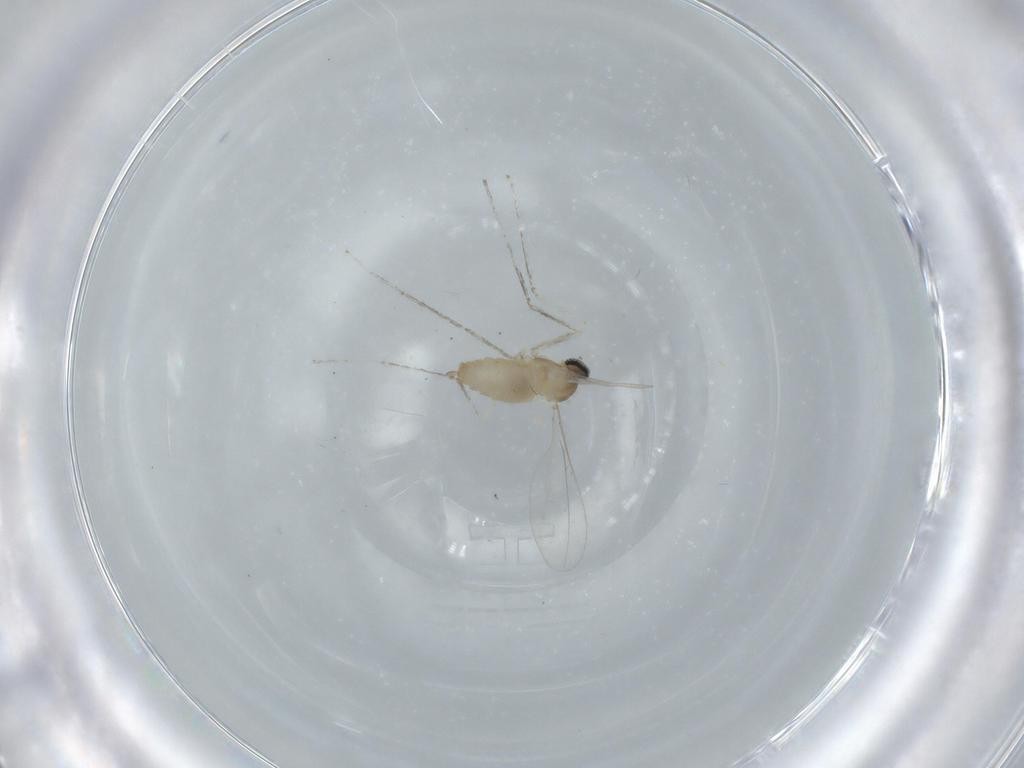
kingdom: Animalia
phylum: Arthropoda
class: Insecta
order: Diptera
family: Cecidomyiidae
